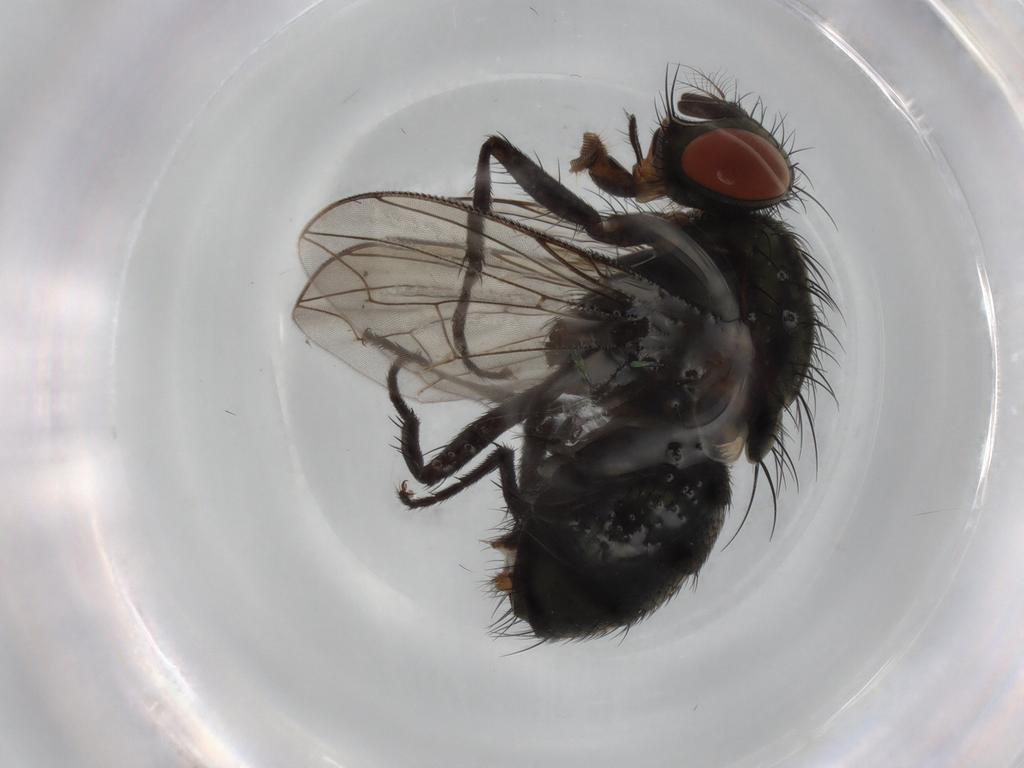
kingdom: Animalia
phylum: Arthropoda
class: Insecta
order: Diptera
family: Sarcophagidae
